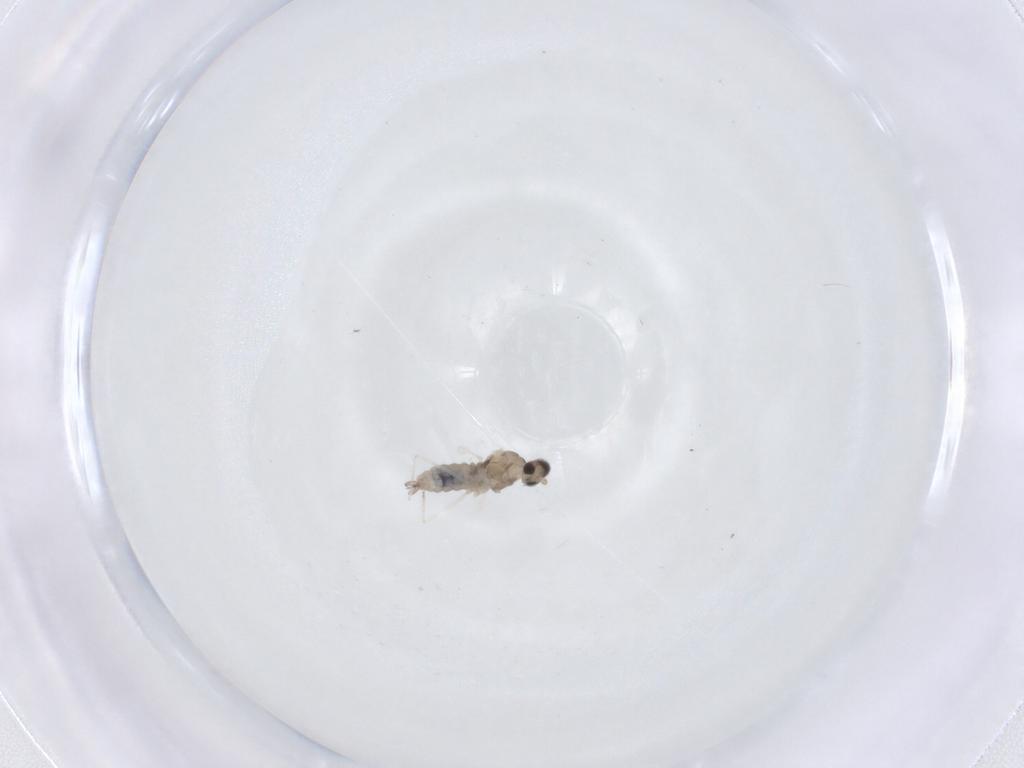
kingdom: Animalia
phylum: Arthropoda
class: Insecta
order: Diptera
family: Cecidomyiidae
